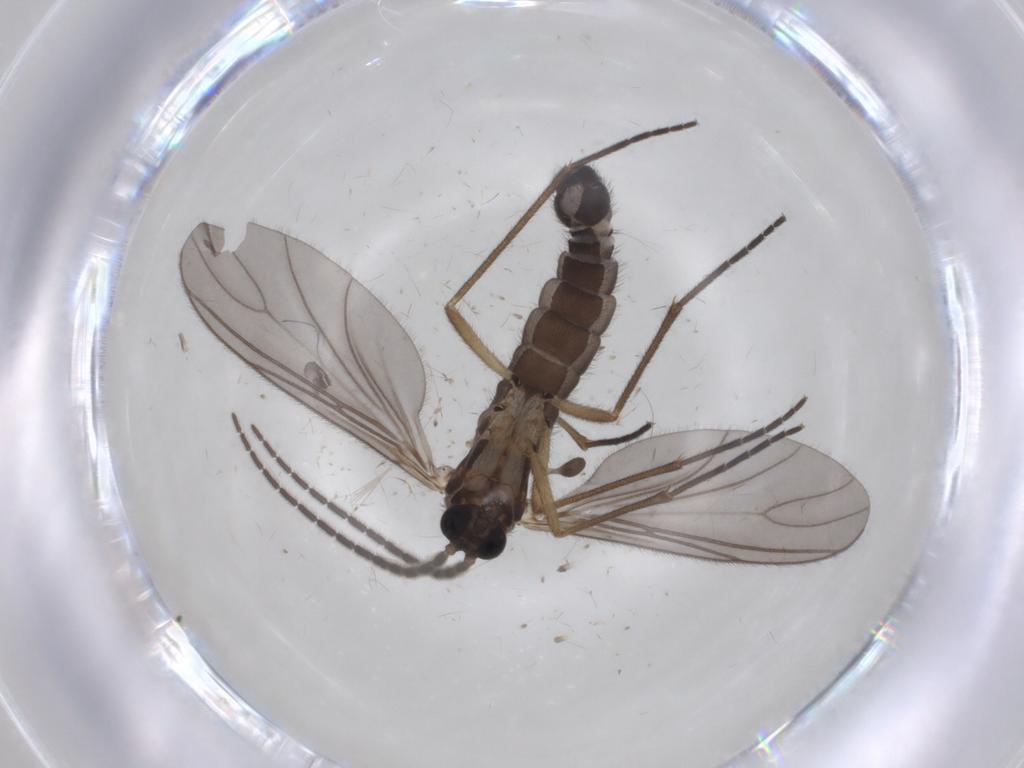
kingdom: Animalia
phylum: Arthropoda
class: Insecta
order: Diptera
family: Sciaridae
